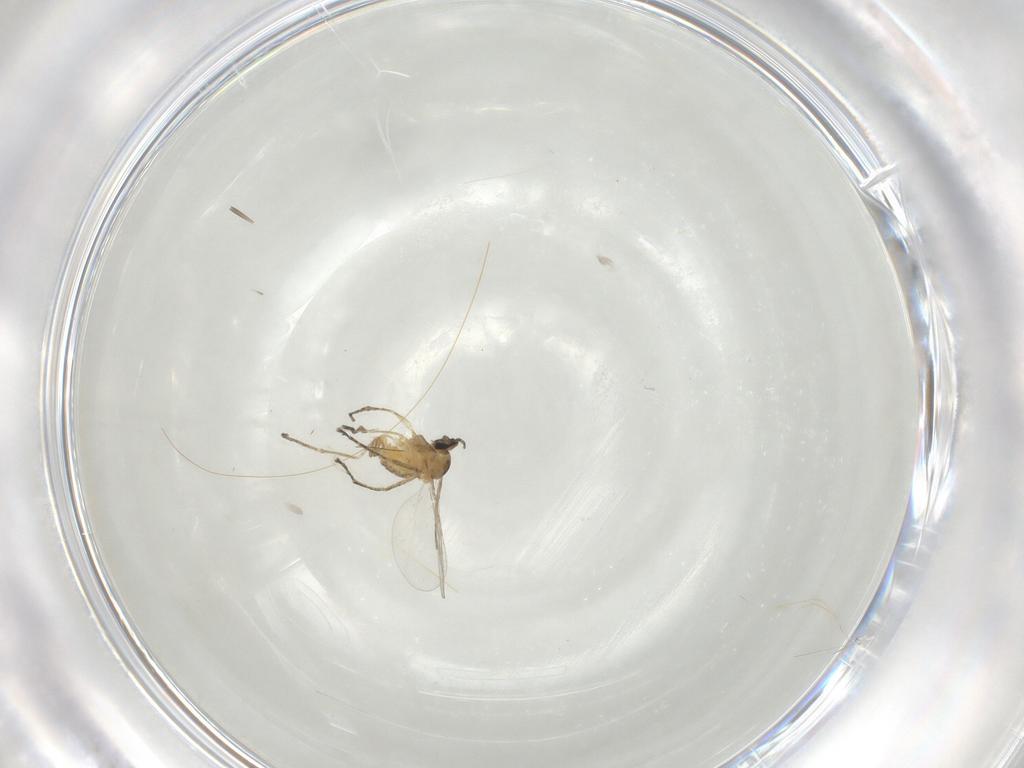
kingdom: Animalia
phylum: Arthropoda
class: Insecta
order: Diptera
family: Cecidomyiidae
